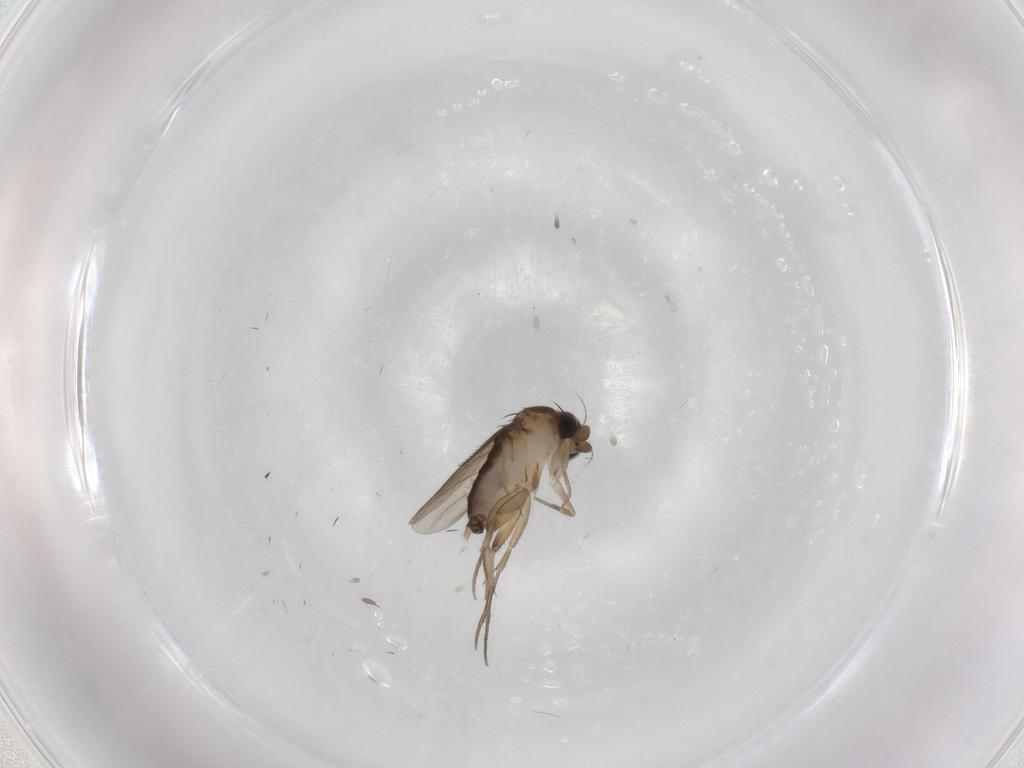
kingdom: Animalia
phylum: Arthropoda
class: Insecta
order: Diptera
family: Phoridae
